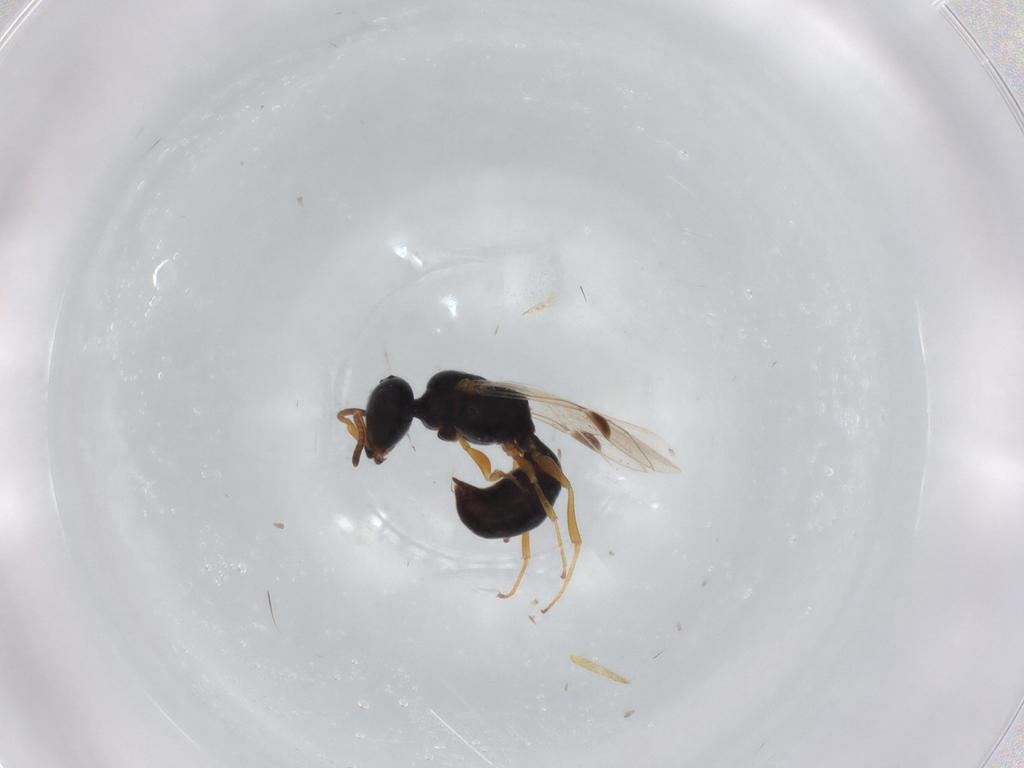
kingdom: Animalia
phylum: Arthropoda
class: Insecta
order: Hymenoptera
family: Pemphredonidae
